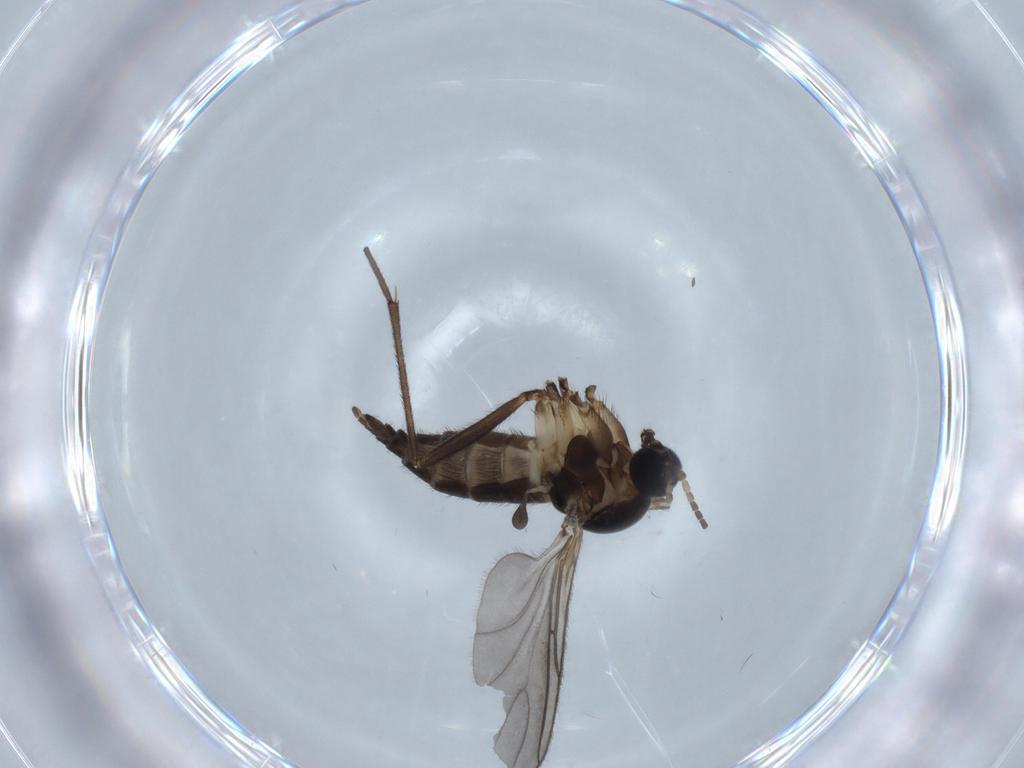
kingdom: Animalia
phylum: Arthropoda
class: Insecta
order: Diptera
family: Sciaridae
